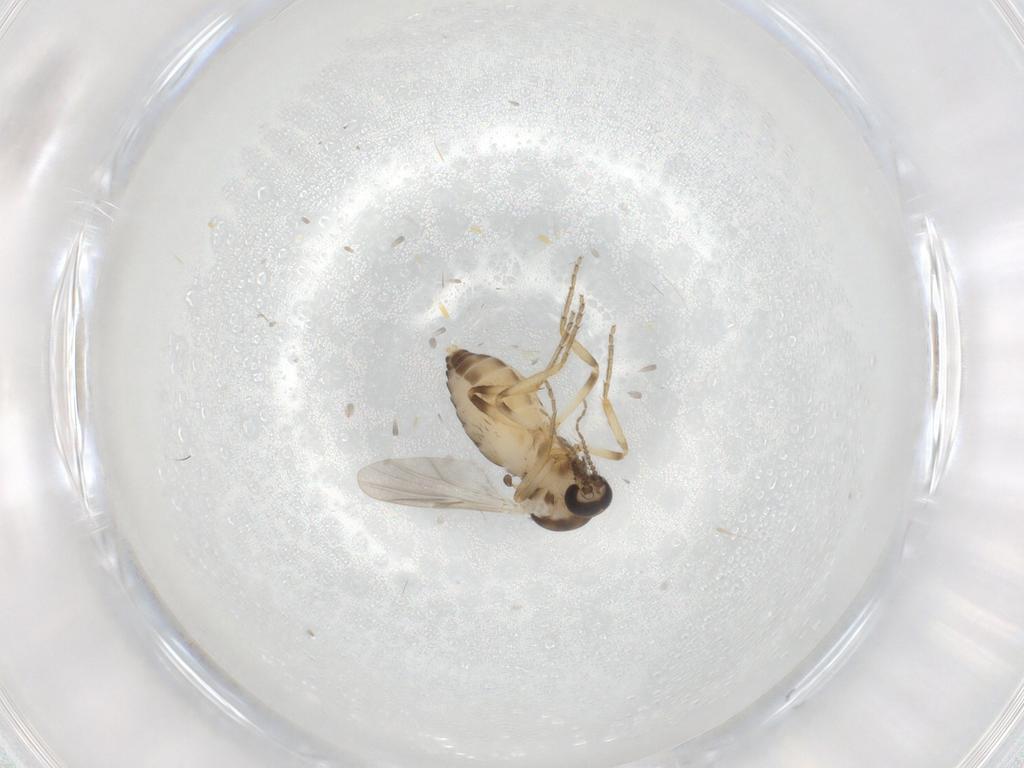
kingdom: Animalia
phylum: Arthropoda
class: Insecta
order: Diptera
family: Ceratopogonidae
